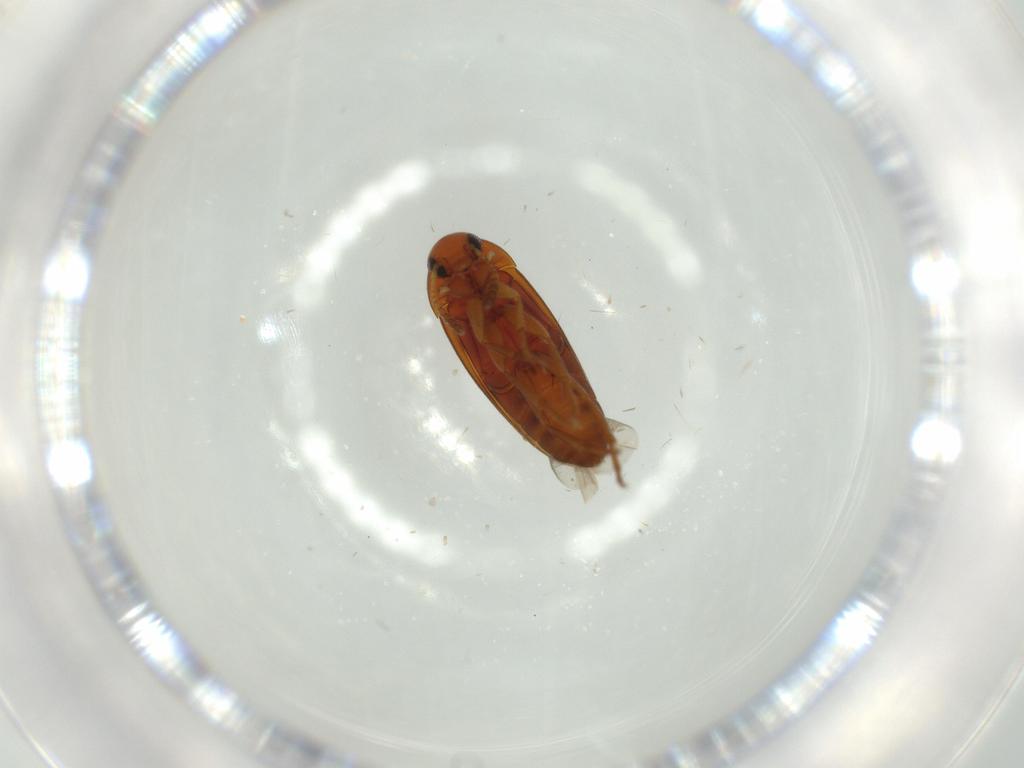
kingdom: Animalia
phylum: Arthropoda
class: Insecta
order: Coleoptera
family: Scraptiidae
